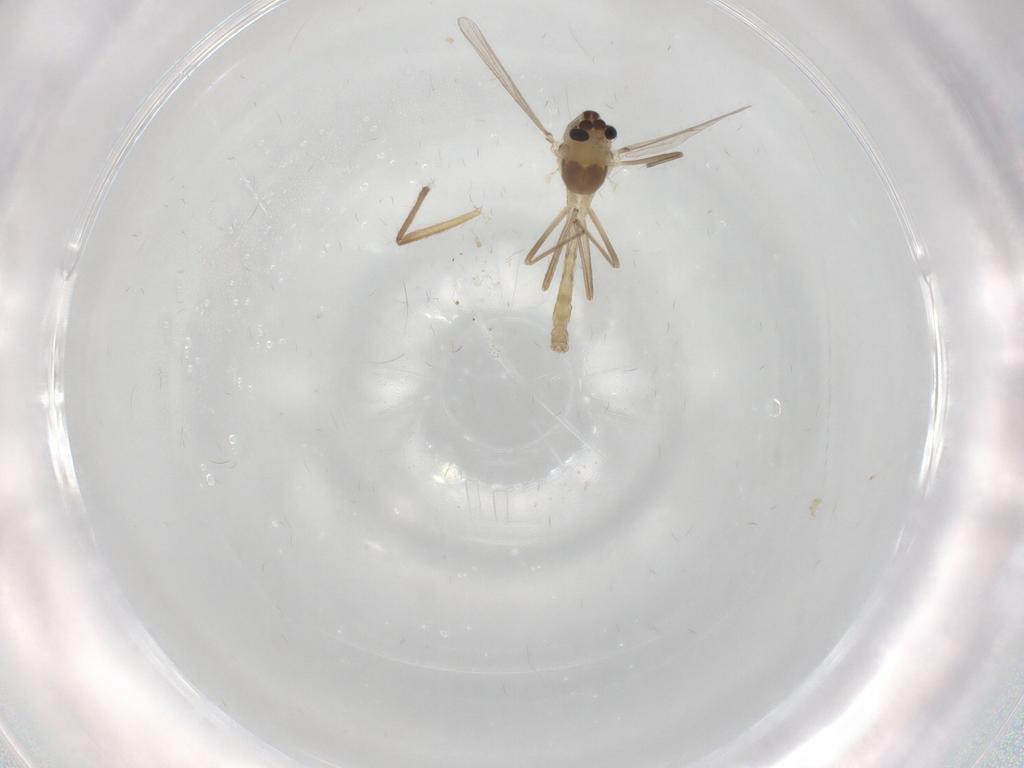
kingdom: Animalia
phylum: Arthropoda
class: Insecta
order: Diptera
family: Chironomidae
